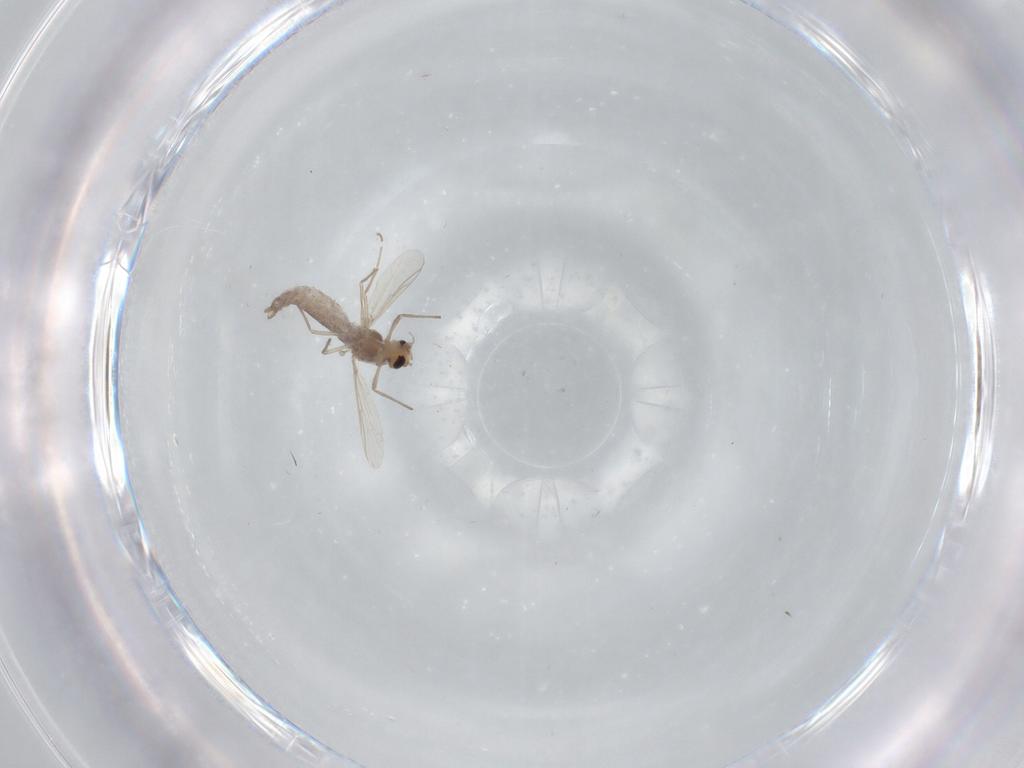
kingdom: Animalia
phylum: Arthropoda
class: Insecta
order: Diptera
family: Chironomidae
